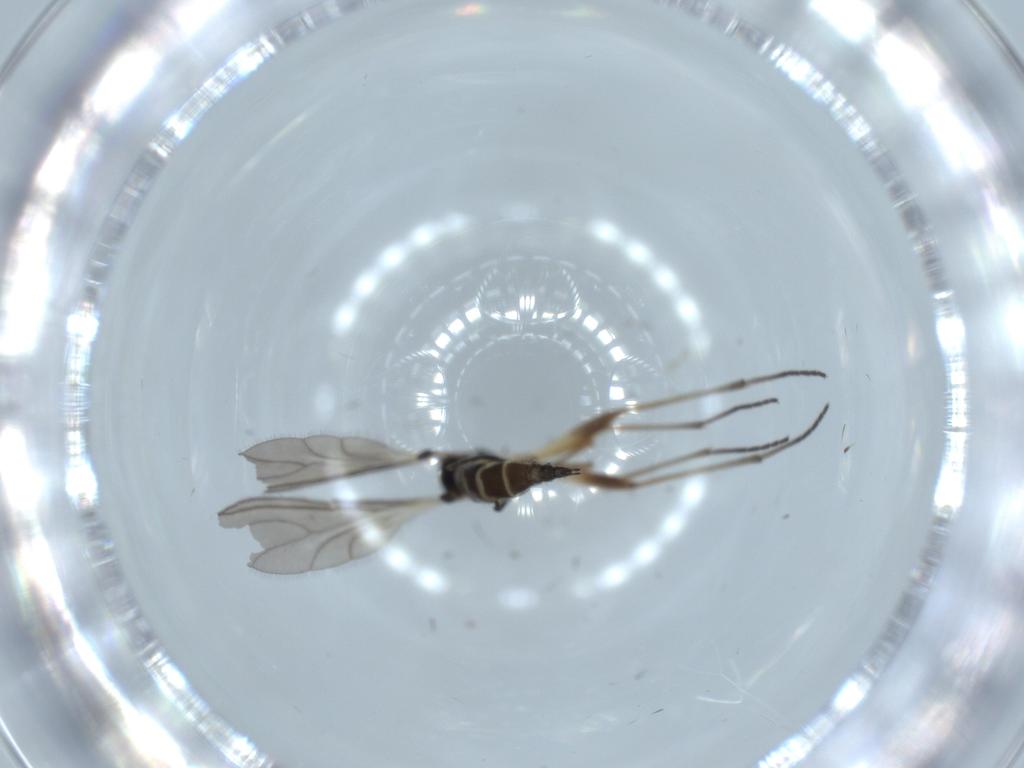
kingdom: Animalia
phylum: Arthropoda
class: Insecta
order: Diptera
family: Sciaridae
